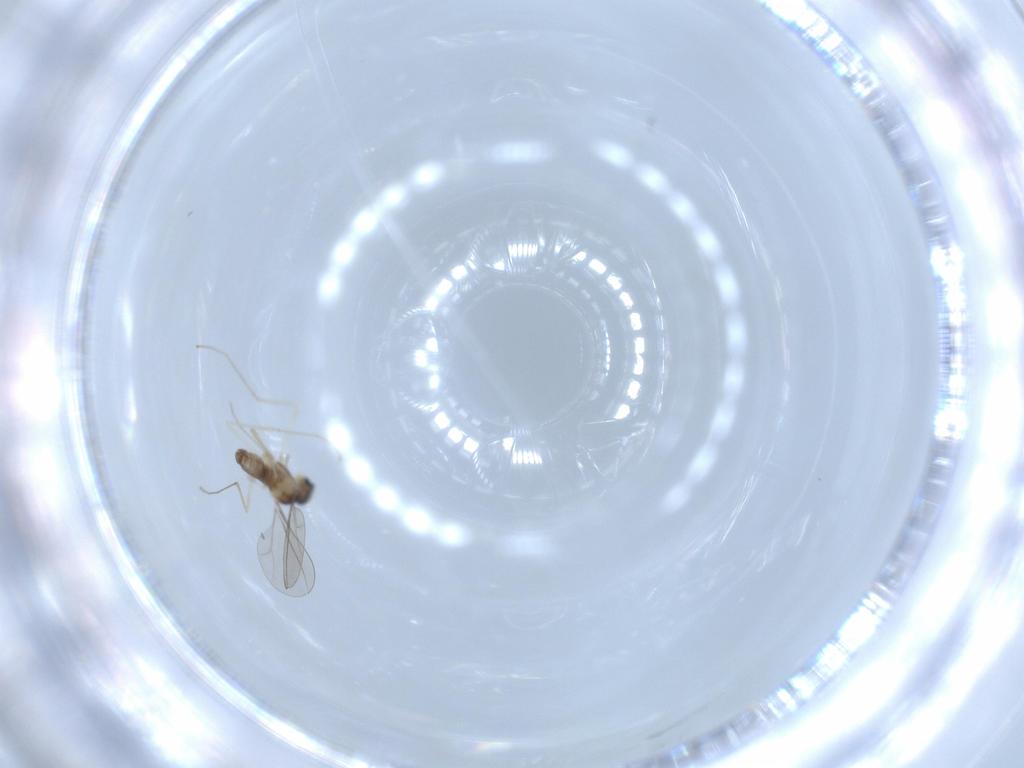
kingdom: Animalia
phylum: Arthropoda
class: Insecta
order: Diptera
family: Cecidomyiidae
